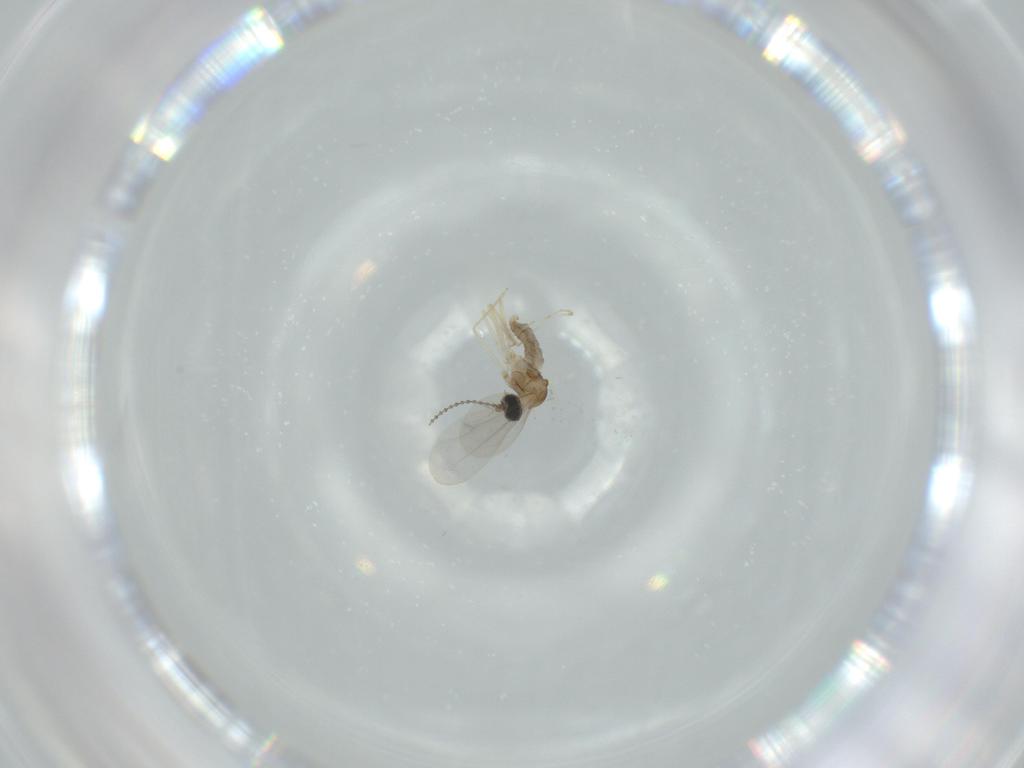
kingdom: Animalia
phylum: Arthropoda
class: Insecta
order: Diptera
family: Cecidomyiidae
